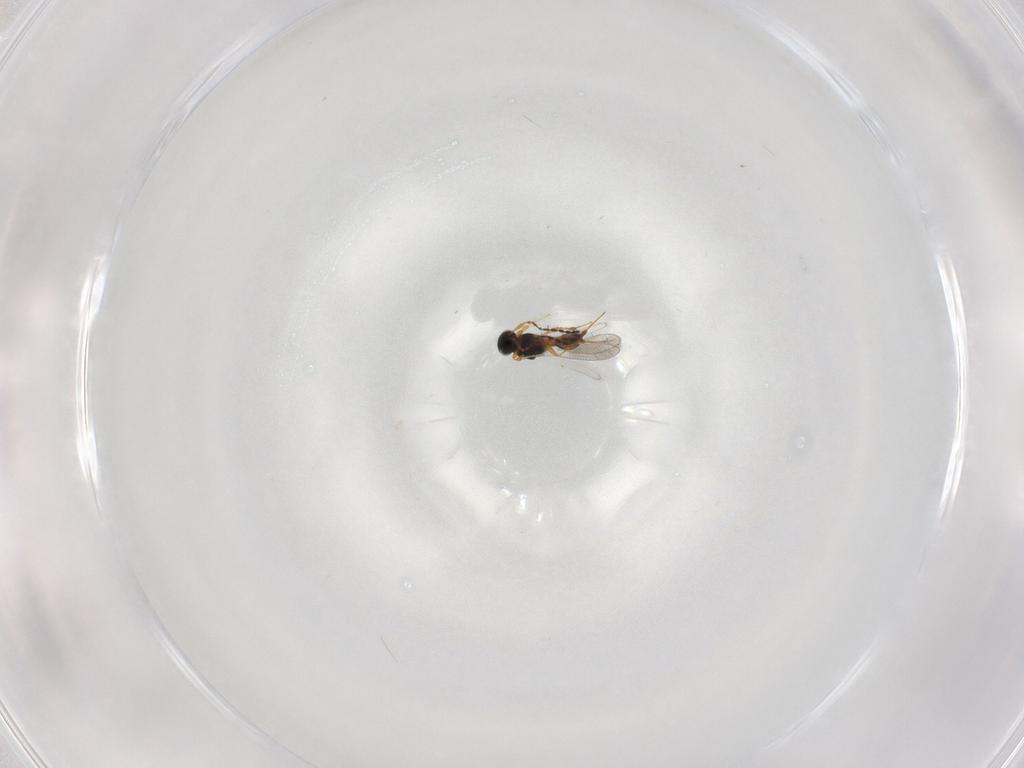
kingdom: Animalia
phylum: Arthropoda
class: Insecta
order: Hymenoptera
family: Platygastridae
